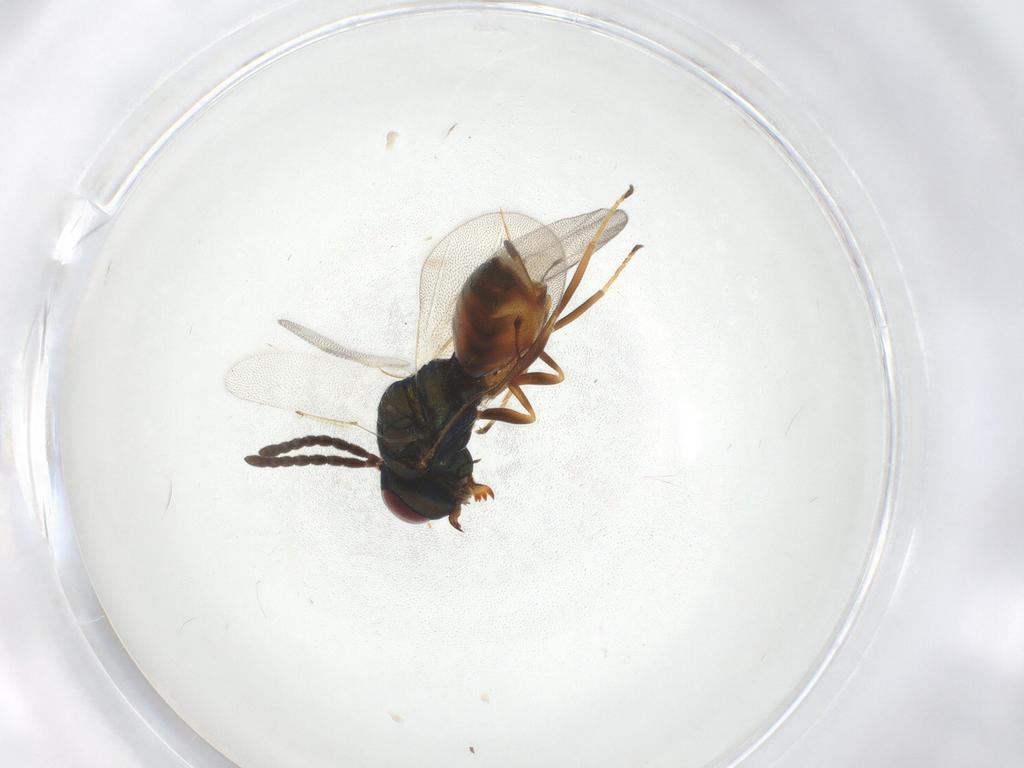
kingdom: Animalia
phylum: Arthropoda
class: Insecta
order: Hymenoptera
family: Pteromalidae
